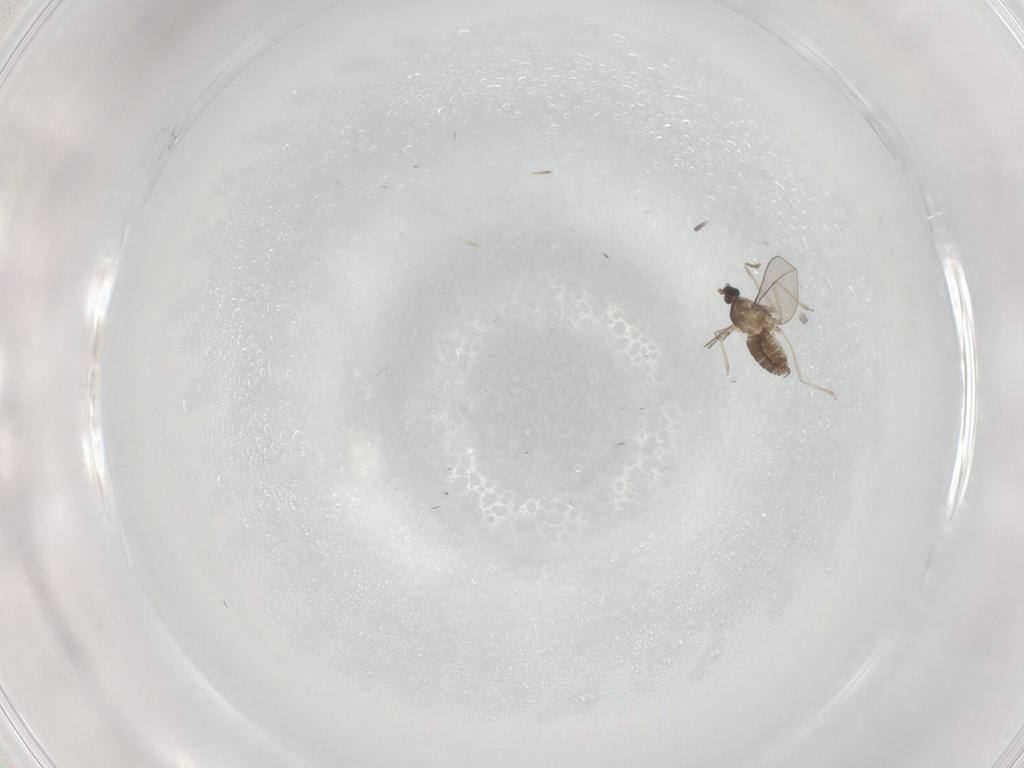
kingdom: Animalia
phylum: Arthropoda
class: Insecta
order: Diptera
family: Cecidomyiidae
